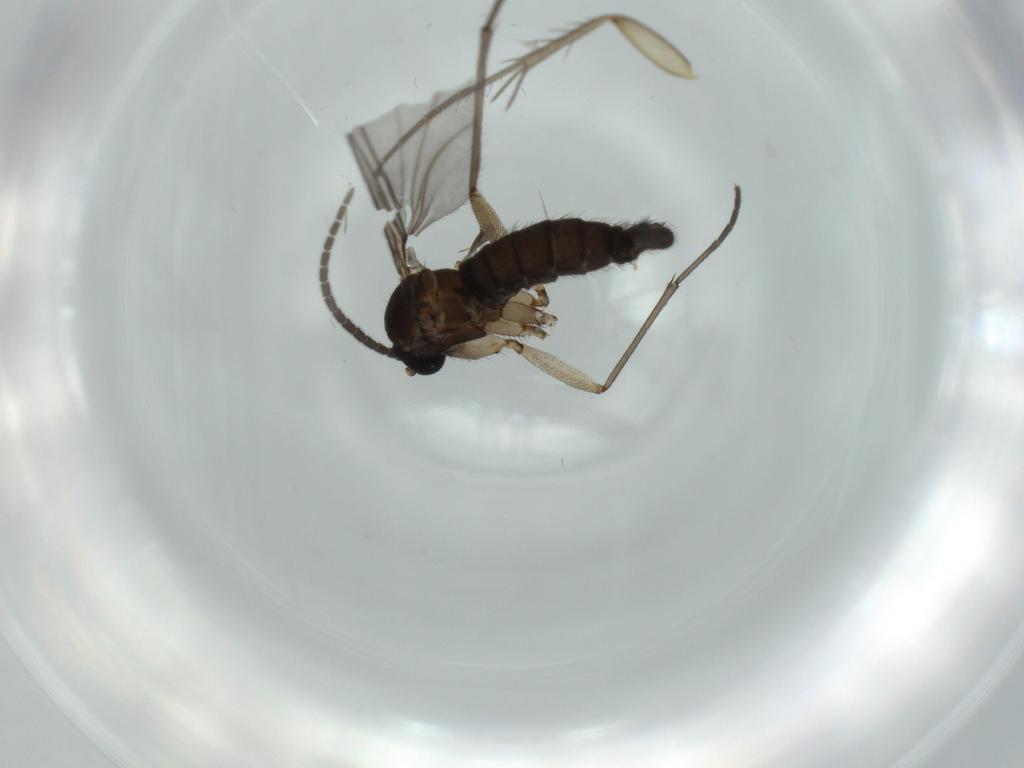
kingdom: Animalia
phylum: Arthropoda
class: Insecta
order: Diptera
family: Sciaridae
